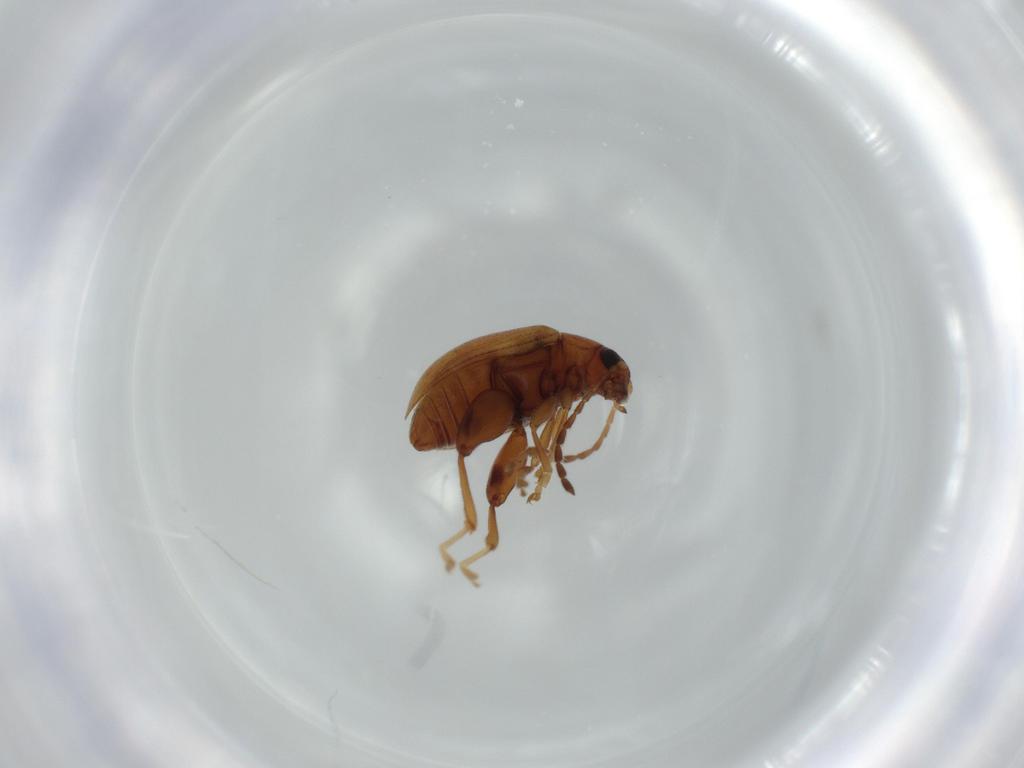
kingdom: Animalia
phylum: Arthropoda
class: Insecta
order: Coleoptera
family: Chrysomelidae
